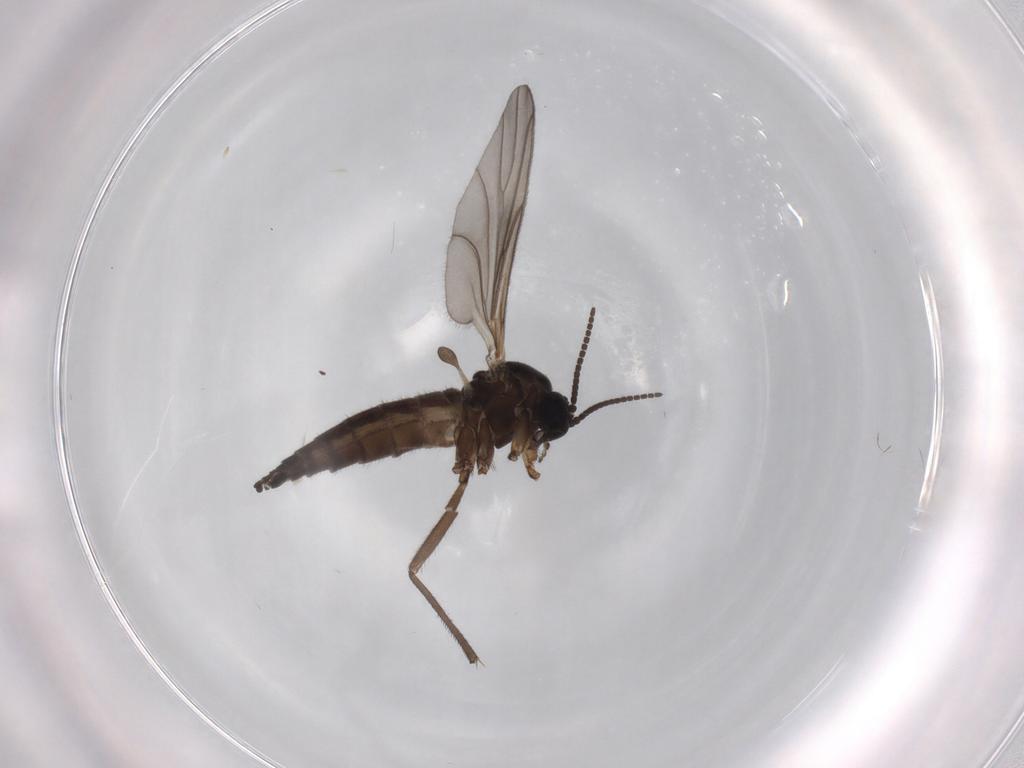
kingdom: Animalia
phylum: Arthropoda
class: Insecta
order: Diptera
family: Sciaridae
